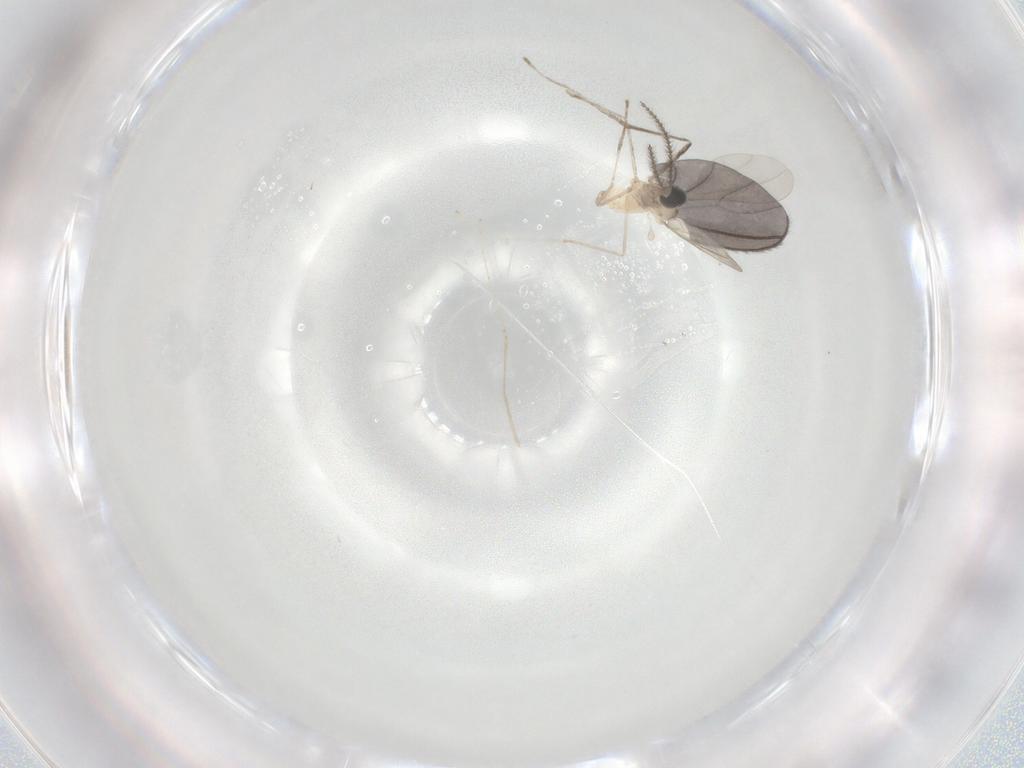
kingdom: Animalia
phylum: Arthropoda
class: Insecta
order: Diptera
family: Cecidomyiidae
